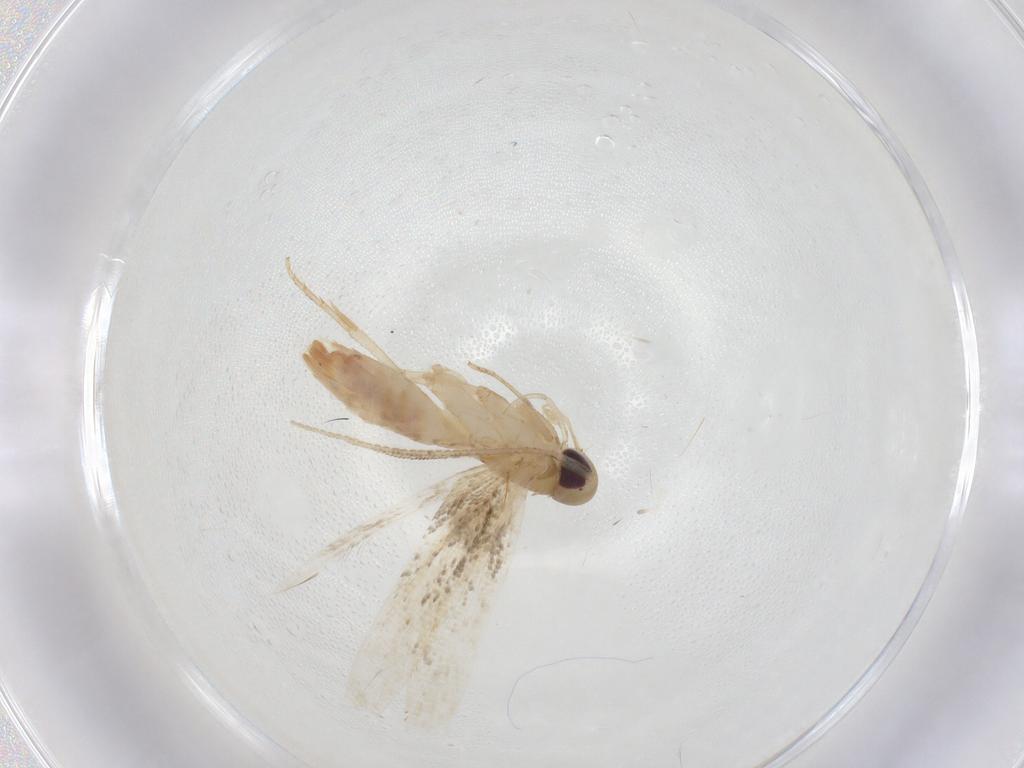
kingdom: Animalia
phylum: Arthropoda
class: Insecta
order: Lepidoptera
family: Cosmopterigidae
